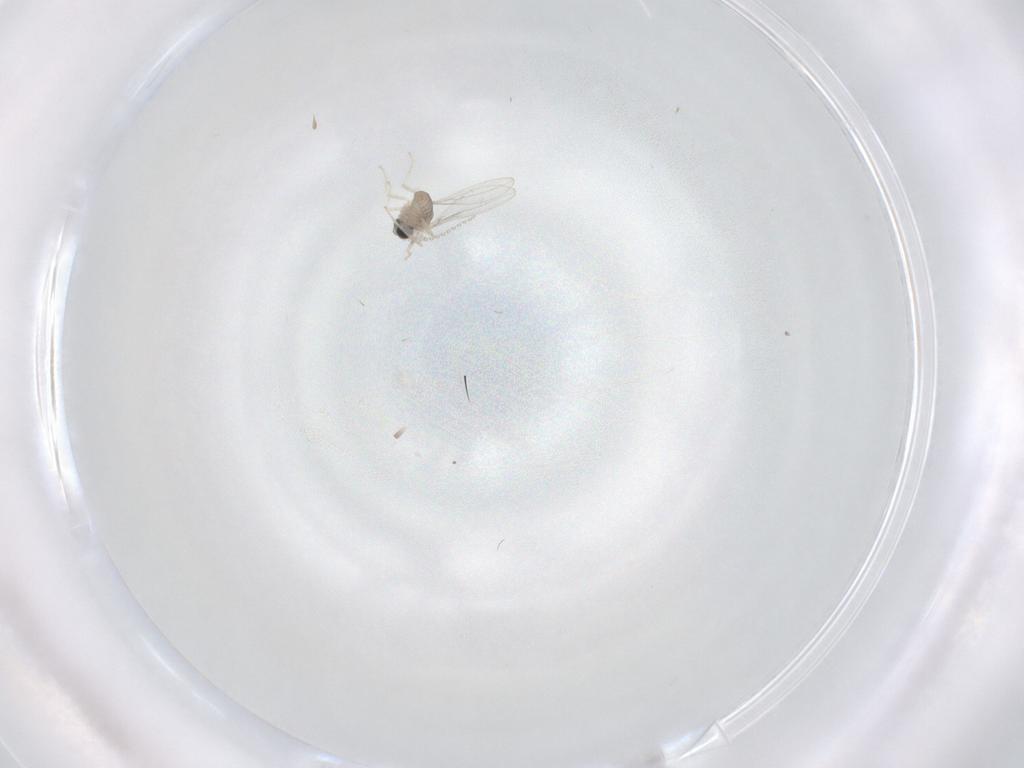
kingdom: Animalia
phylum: Arthropoda
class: Insecta
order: Diptera
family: Cecidomyiidae
